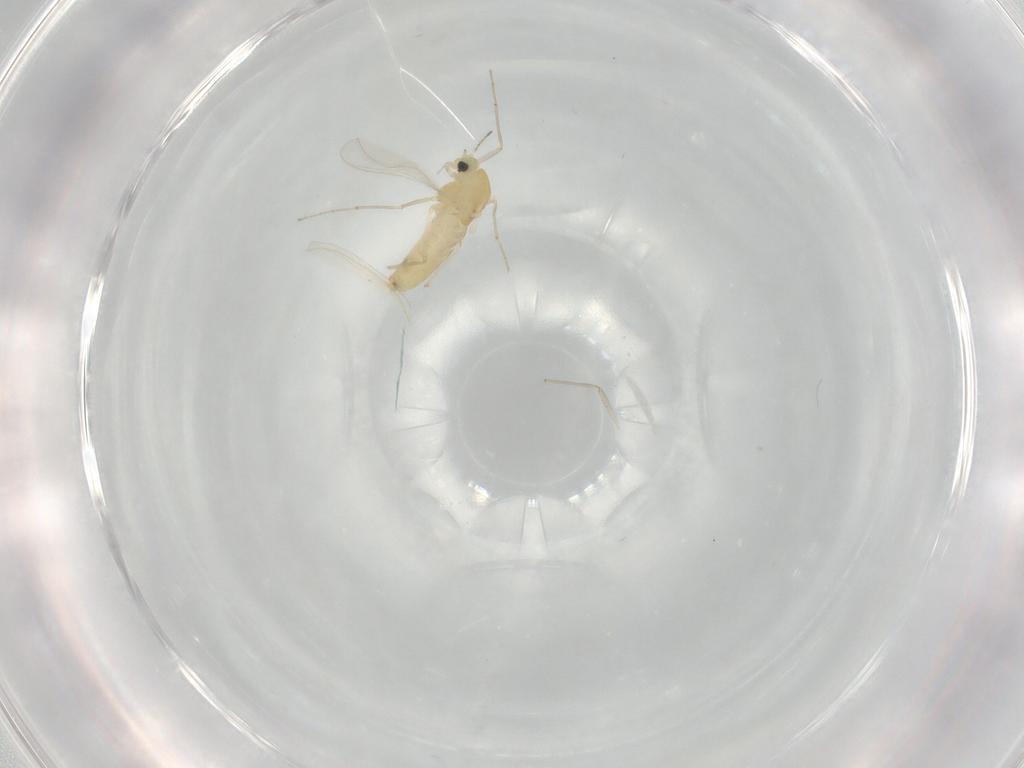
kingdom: Animalia
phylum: Arthropoda
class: Insecta
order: Diptera
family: Chironomidae
